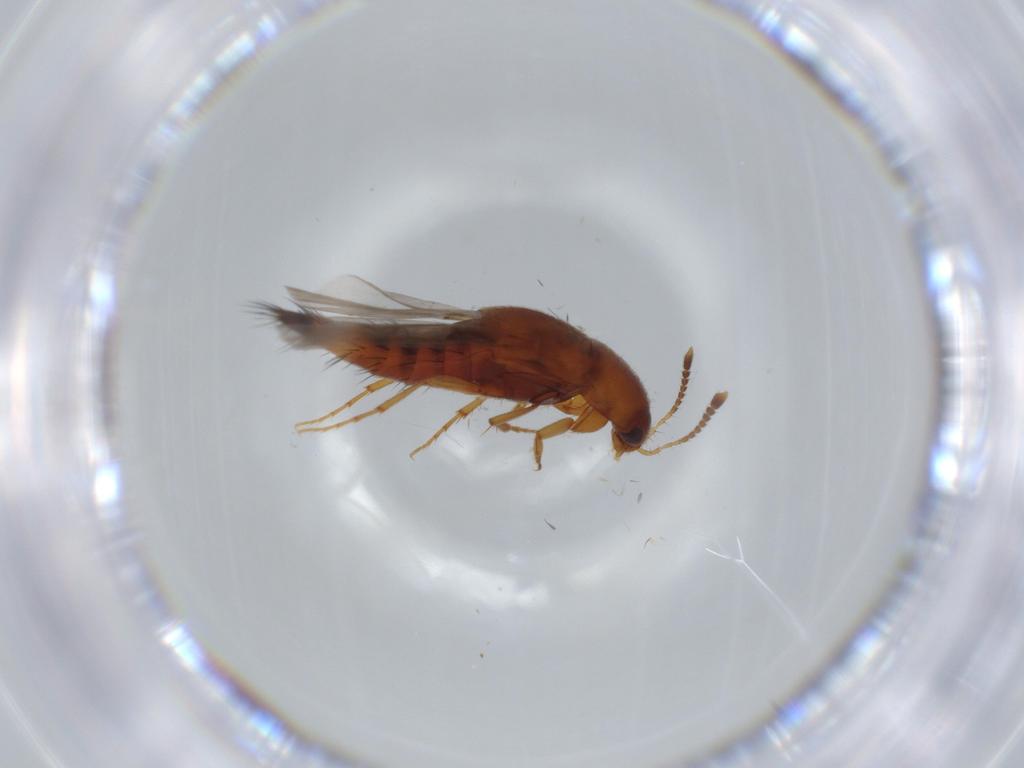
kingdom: Animalia
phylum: Arthropoda
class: Insecta
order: Coleoptera
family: Staphylinidae
